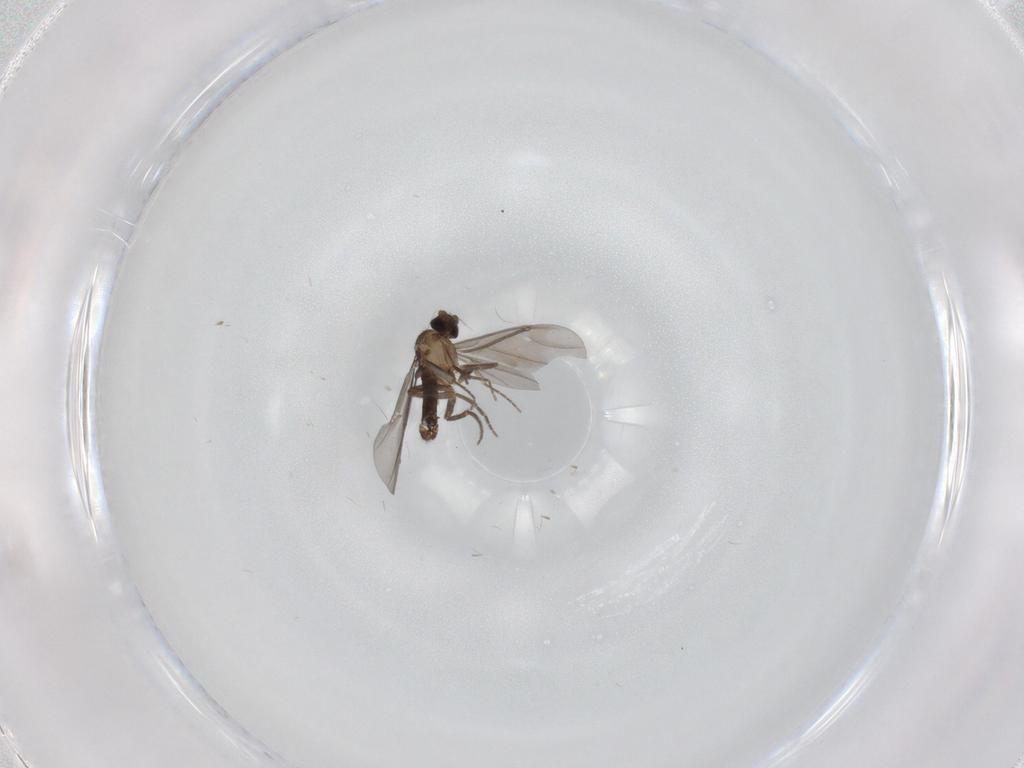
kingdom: Animalia
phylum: Arthropoda
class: Insecta
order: Diptera
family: Phoridae
